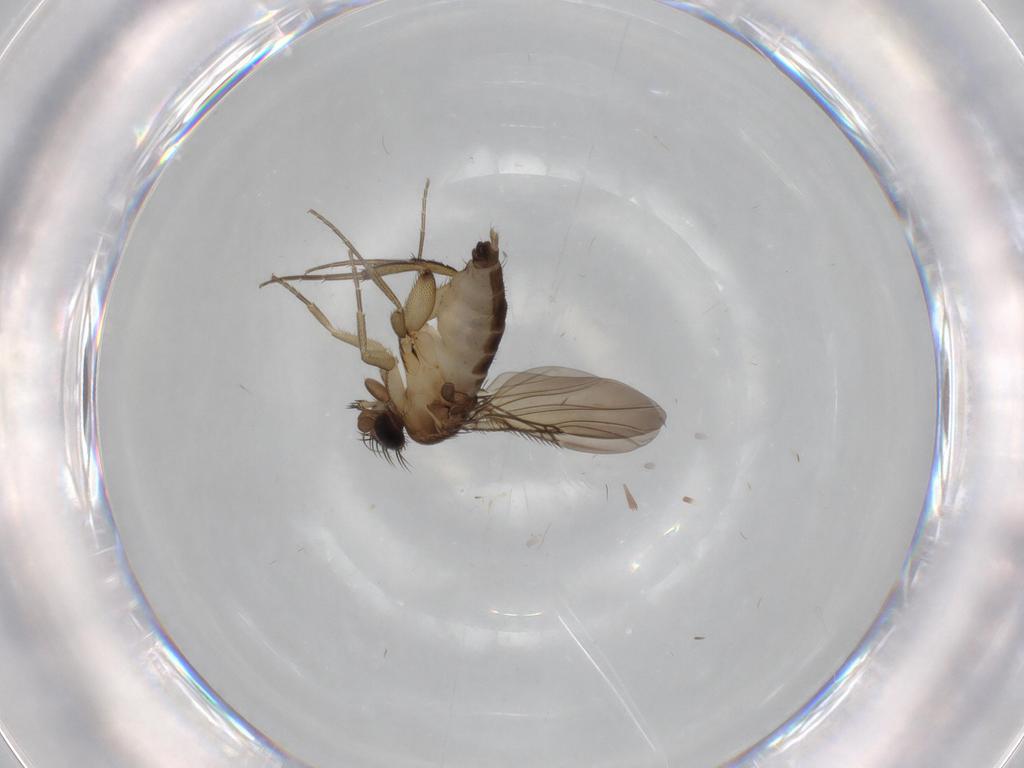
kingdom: Animalia
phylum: Arthropoda
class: Insecta
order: Diptera
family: Phoridae
